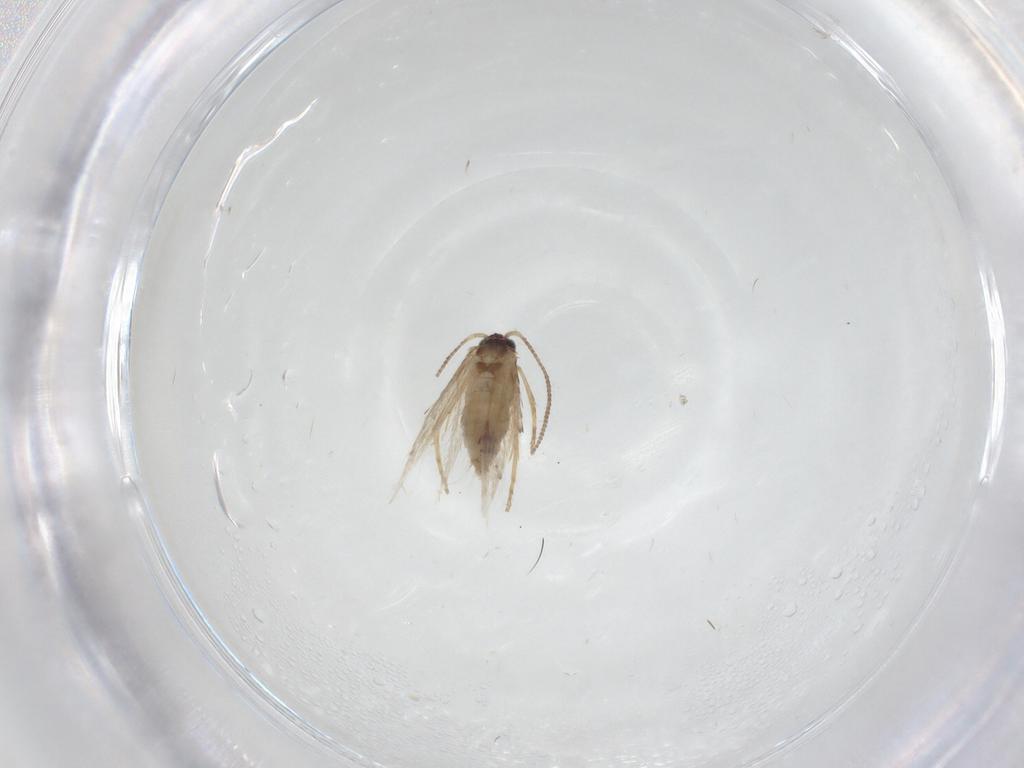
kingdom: Animalia
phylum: Arthropoda
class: Insecta
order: Lepidoptera
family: Nepticulidae
